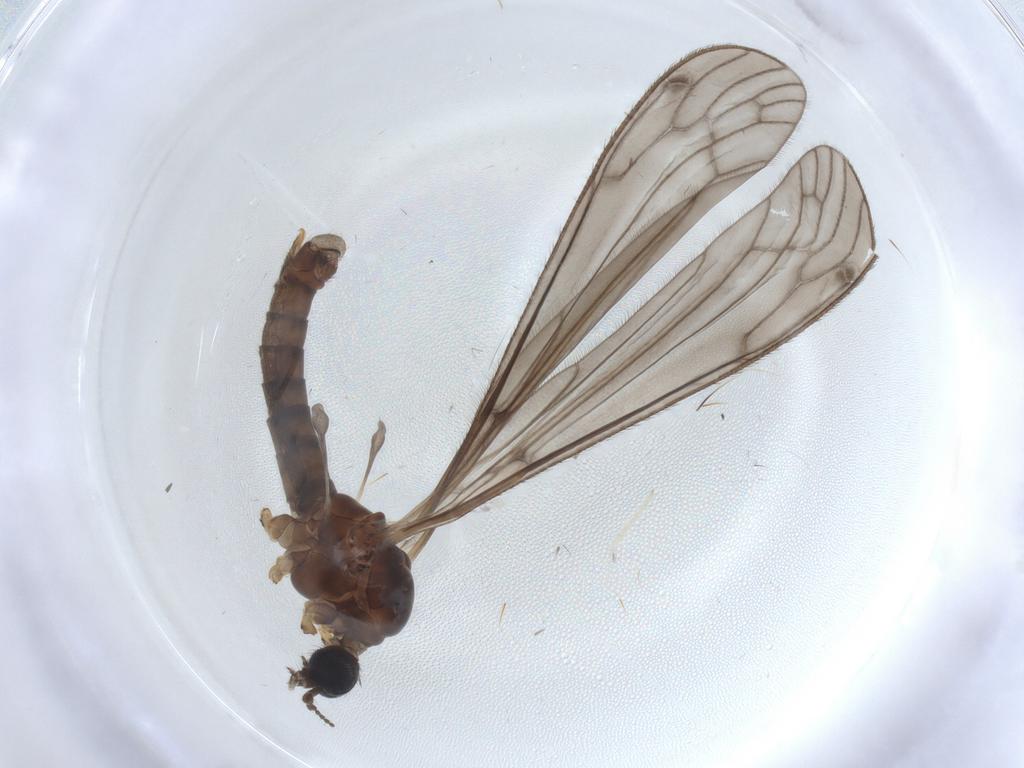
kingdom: Animalia
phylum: Arthropoda
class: Insecta
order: Diptera
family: Limoniidae
